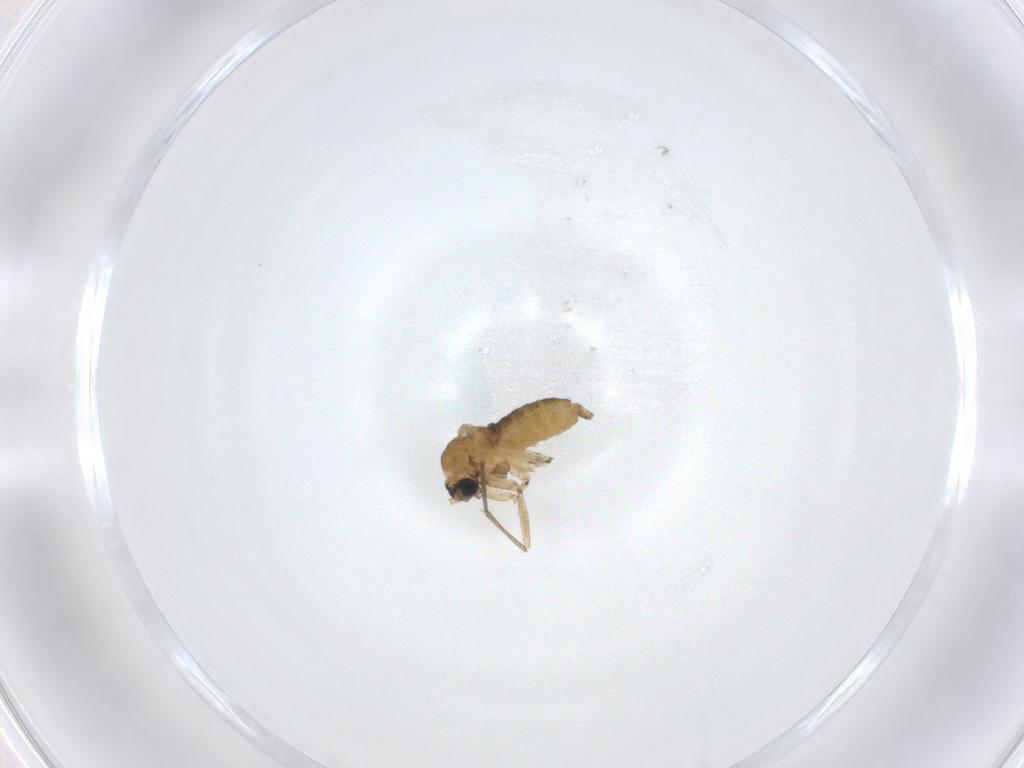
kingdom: Animalia
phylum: Arthropoda
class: Insecta
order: Diptera
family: Sciaridae
